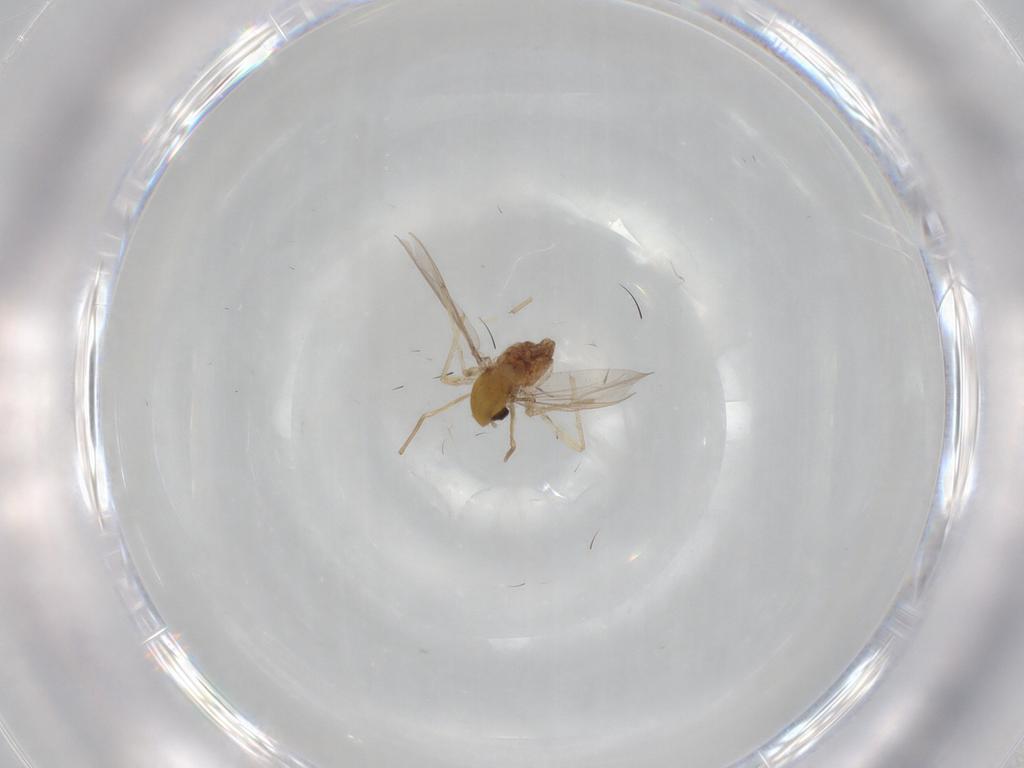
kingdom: Animalia
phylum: Arthropoda
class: Insecta
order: Diptera
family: Chironomidae
